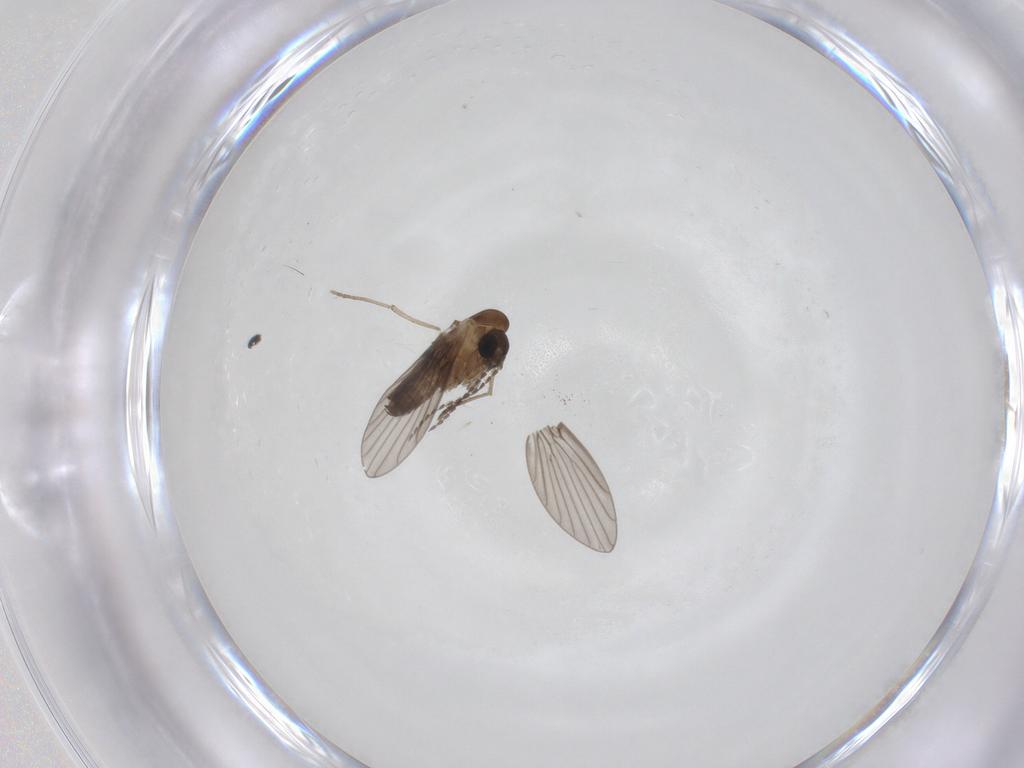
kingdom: Animalia
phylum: Arthropoda
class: Insecta
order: Diptera
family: Psychodidae
